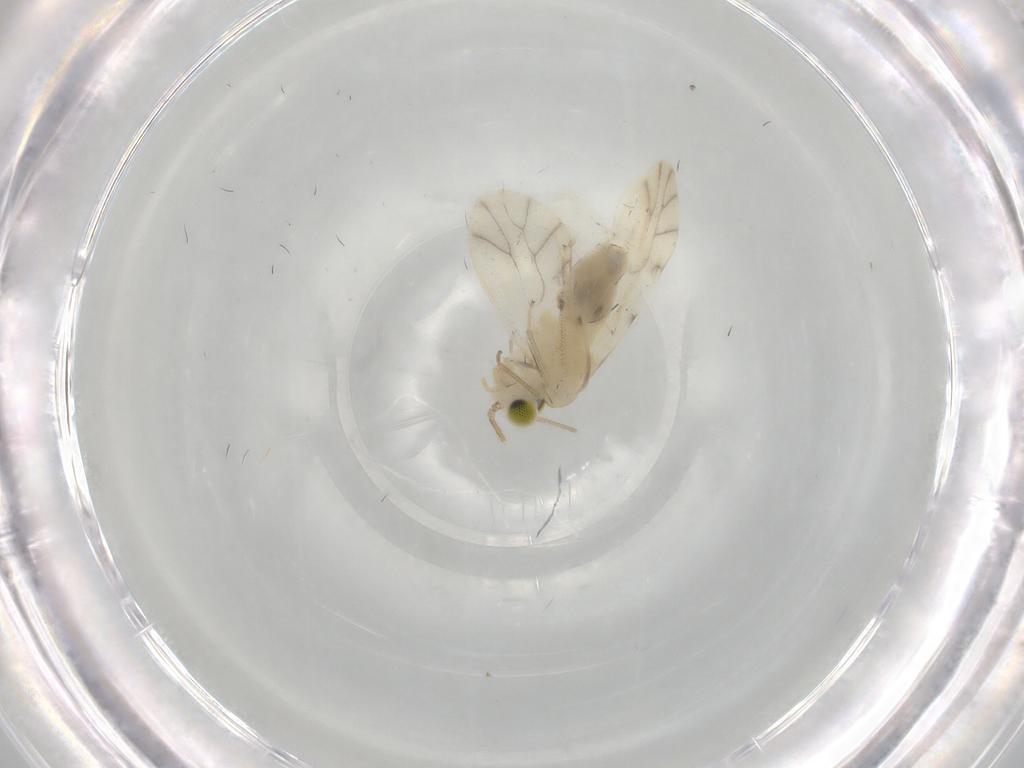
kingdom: Animalia
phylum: Arthropoda
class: Insecta
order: Psocodea
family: Caeciliusidae
